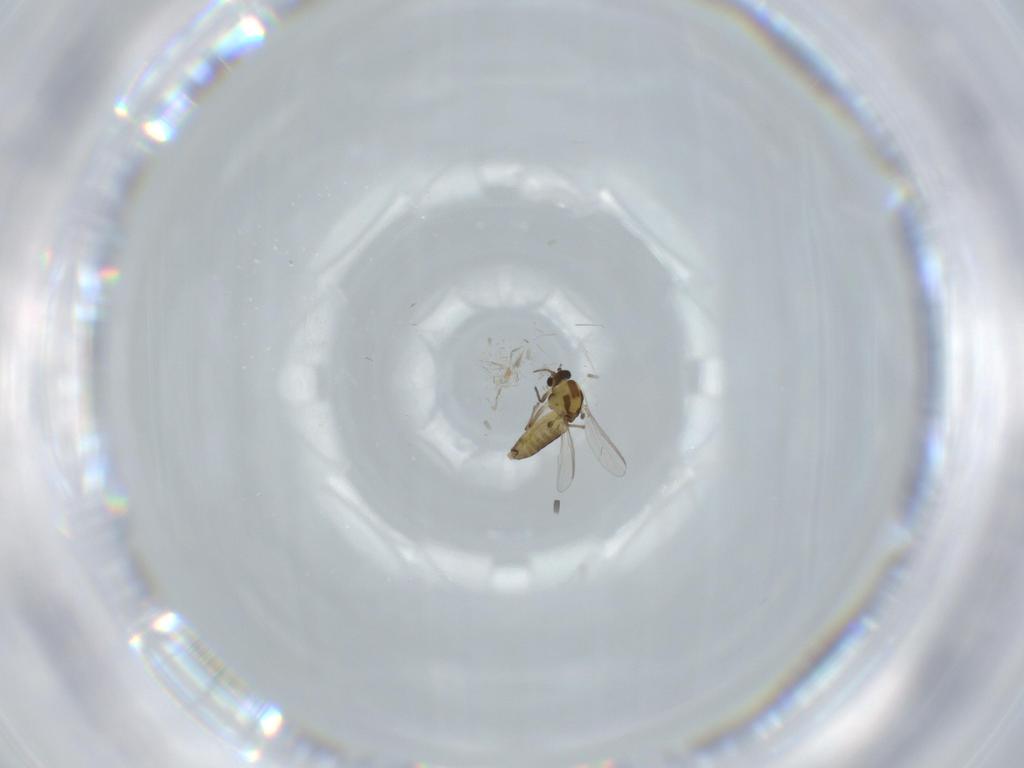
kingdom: Animalia
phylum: Arthropoda
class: Insecta
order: Diptera
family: Chironomidae
